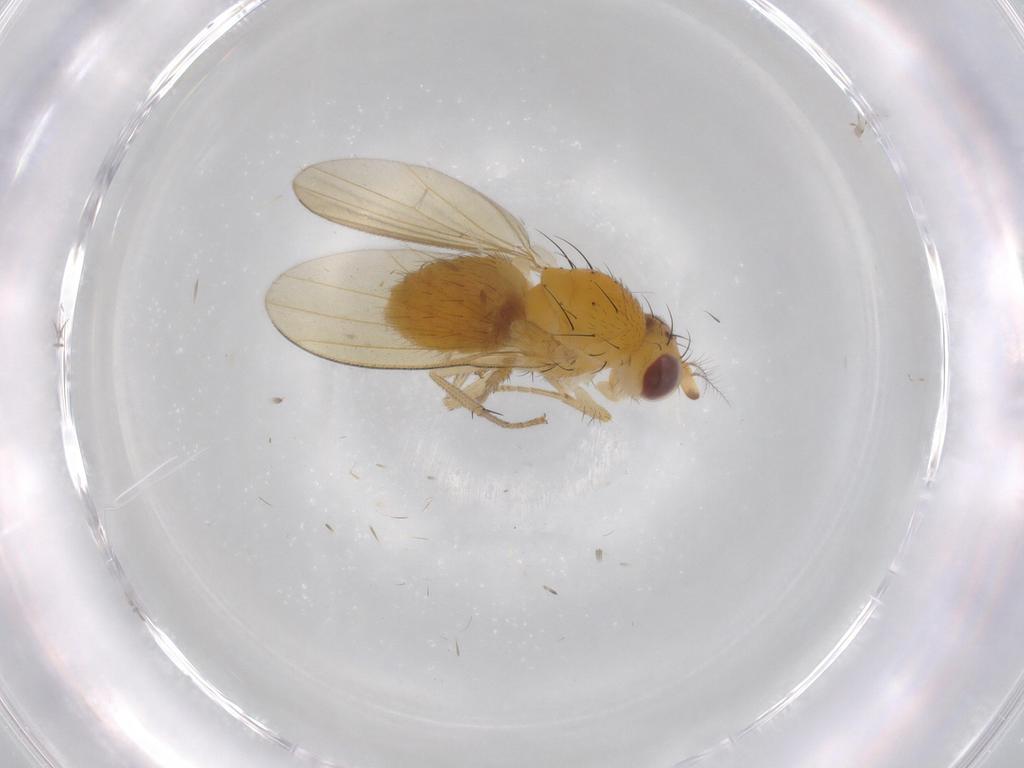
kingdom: Animalia
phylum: Arthropoda
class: Insecta
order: Diptera
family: Lauxaniidae
